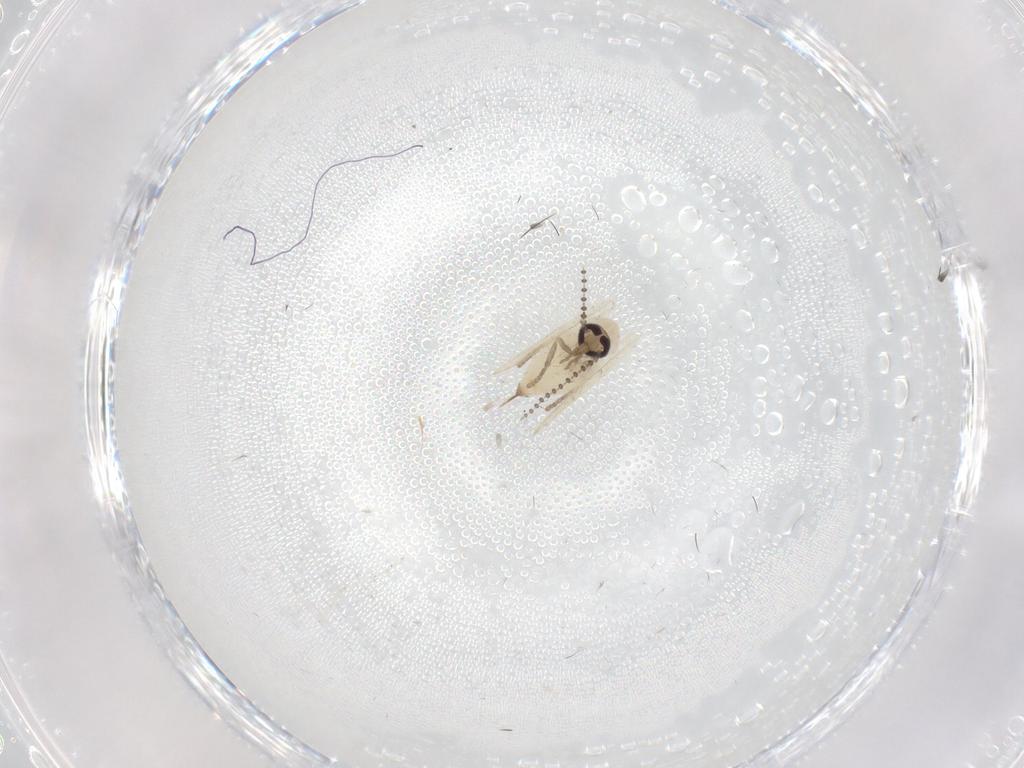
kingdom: Animalia
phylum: Arthropoda
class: Insecta
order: Diptera
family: Psychodidae
